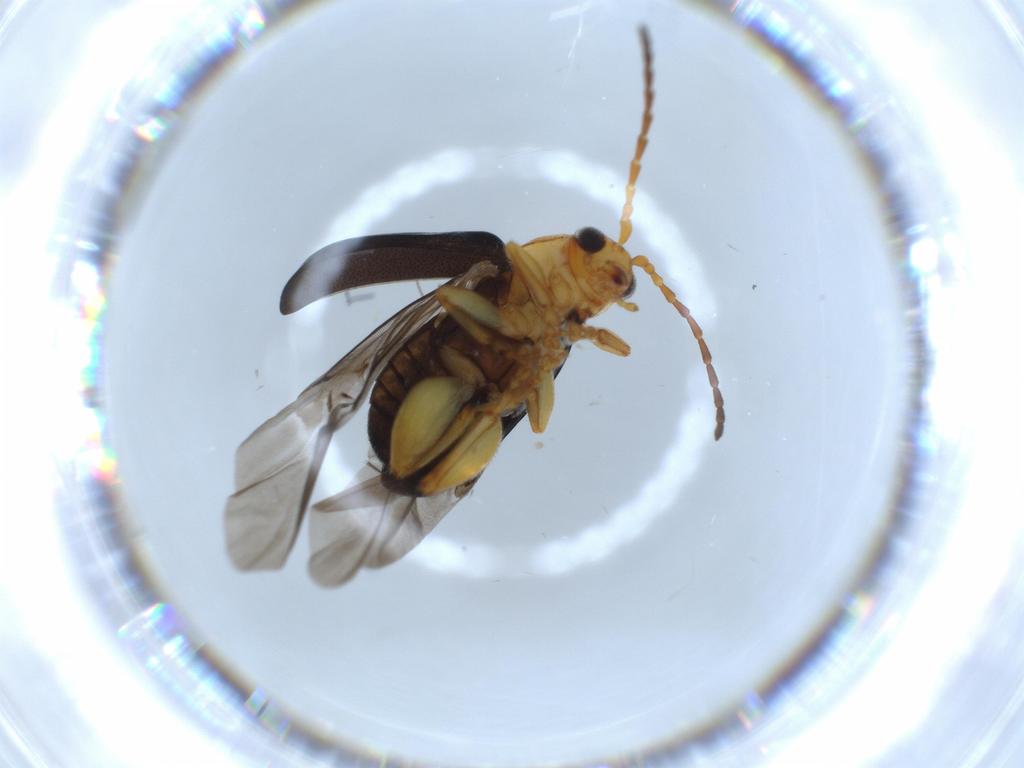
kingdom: Animalia
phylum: Arthropoda
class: Insecta
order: Coleoptera
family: Chrysomelidae
